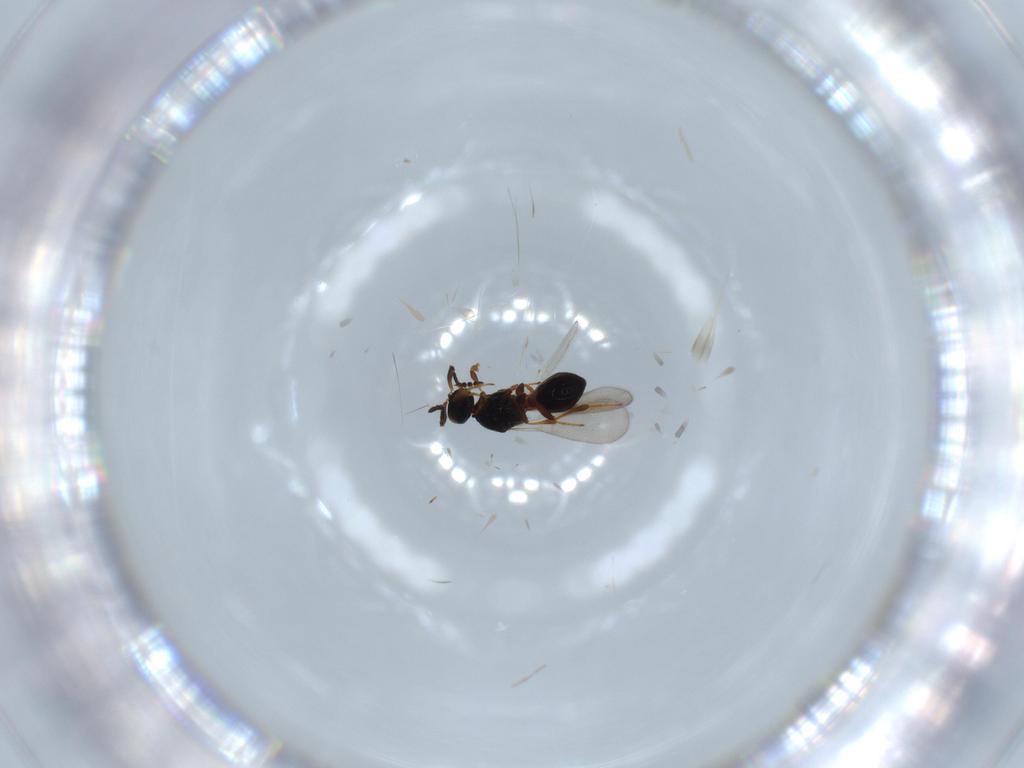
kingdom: Animalia
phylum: Arthropoda
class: Insecta
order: Hymenoptera
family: Platygastridae
